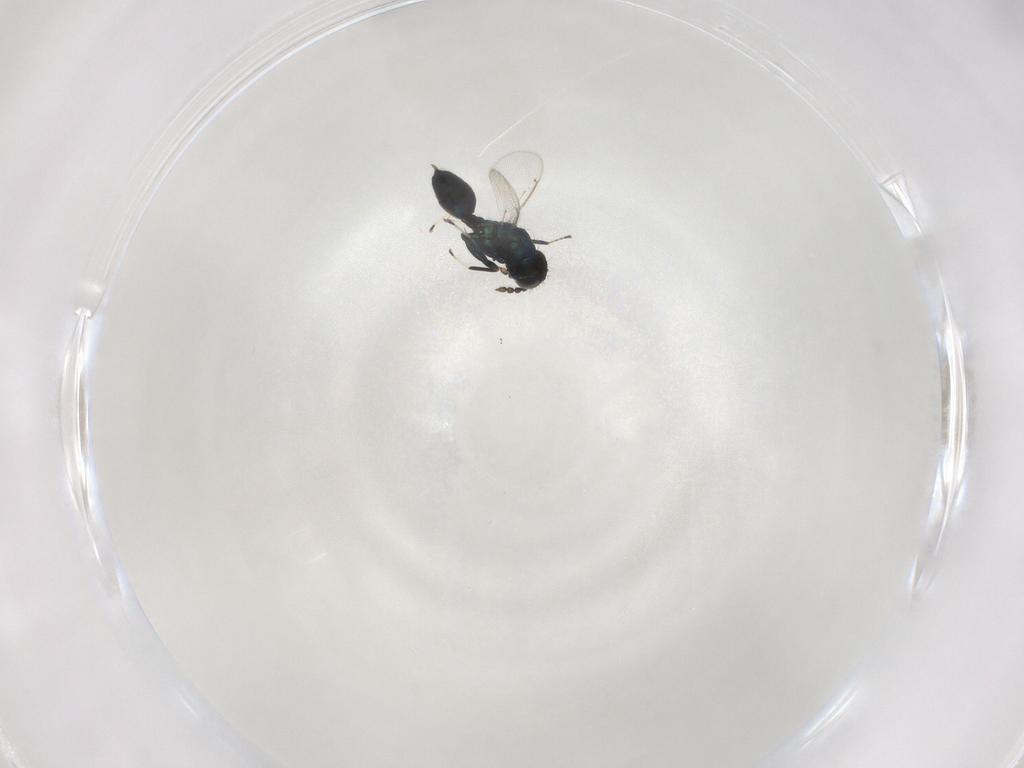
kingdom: Animalia
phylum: Arthropoda
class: Insecta
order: Hymenoptera
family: Eulophidae
